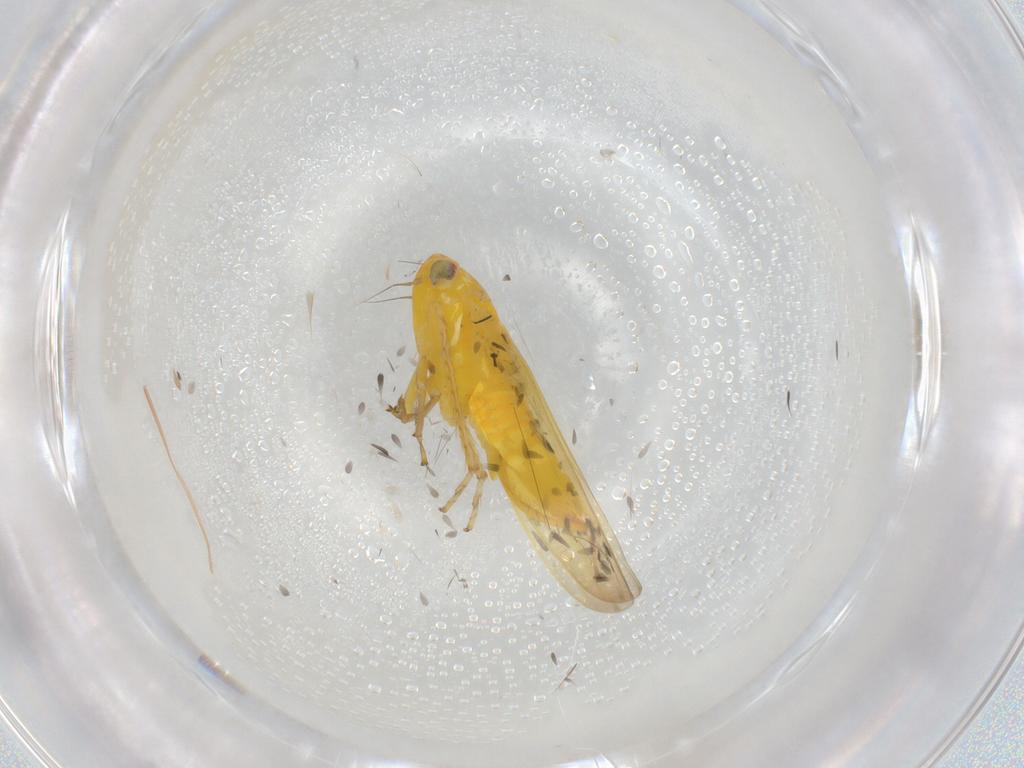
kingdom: Animalia
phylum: Arthropoda
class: Insecta
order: Hemiptera
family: Cicadellidae
